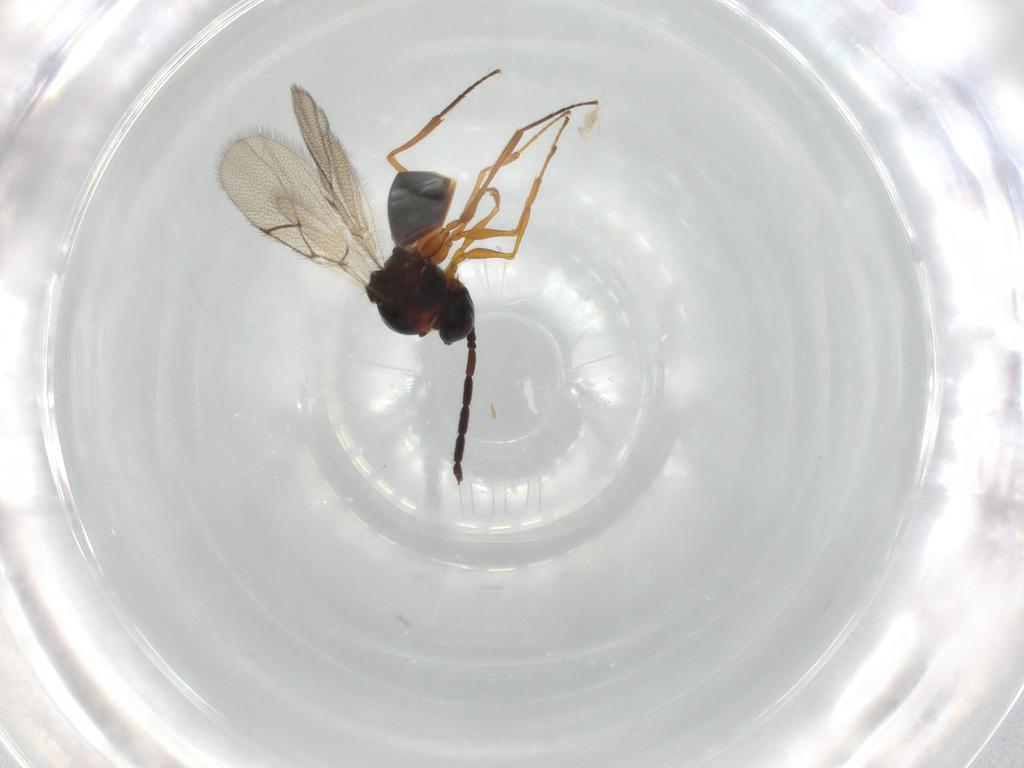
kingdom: Animalia
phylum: Arthropoda
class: Insecta
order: Hymenoptera
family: Figitidae
